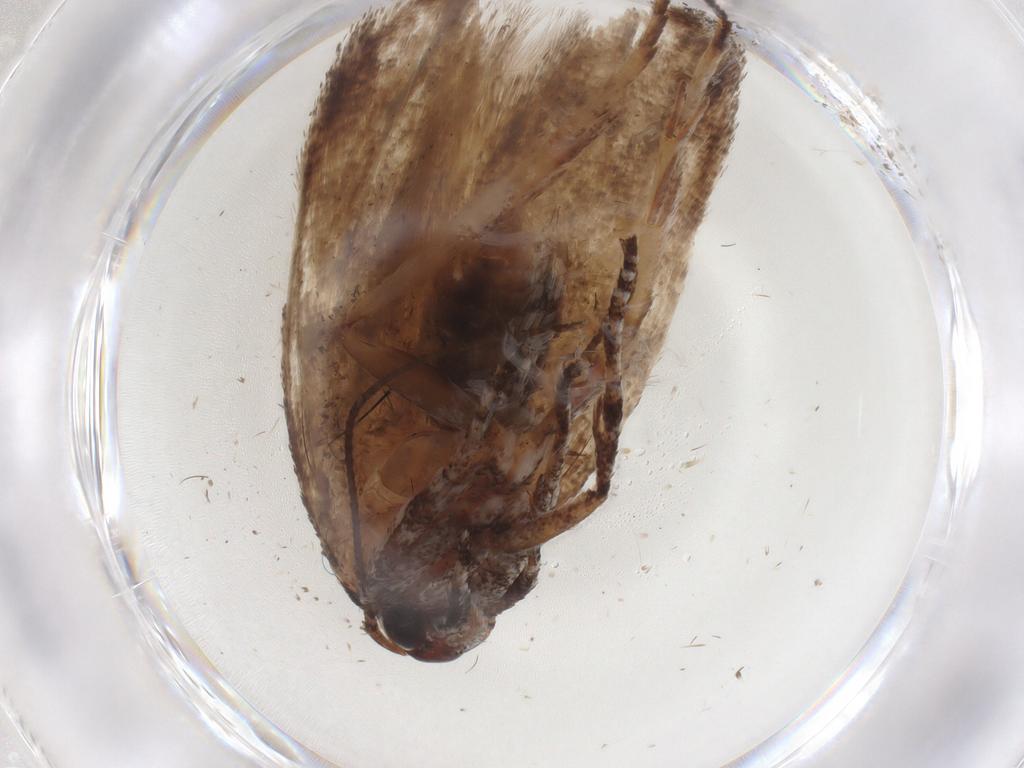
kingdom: Animalia
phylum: Arthropoda
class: Insecta
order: Lepidoptera
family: Cosmopterigidae
